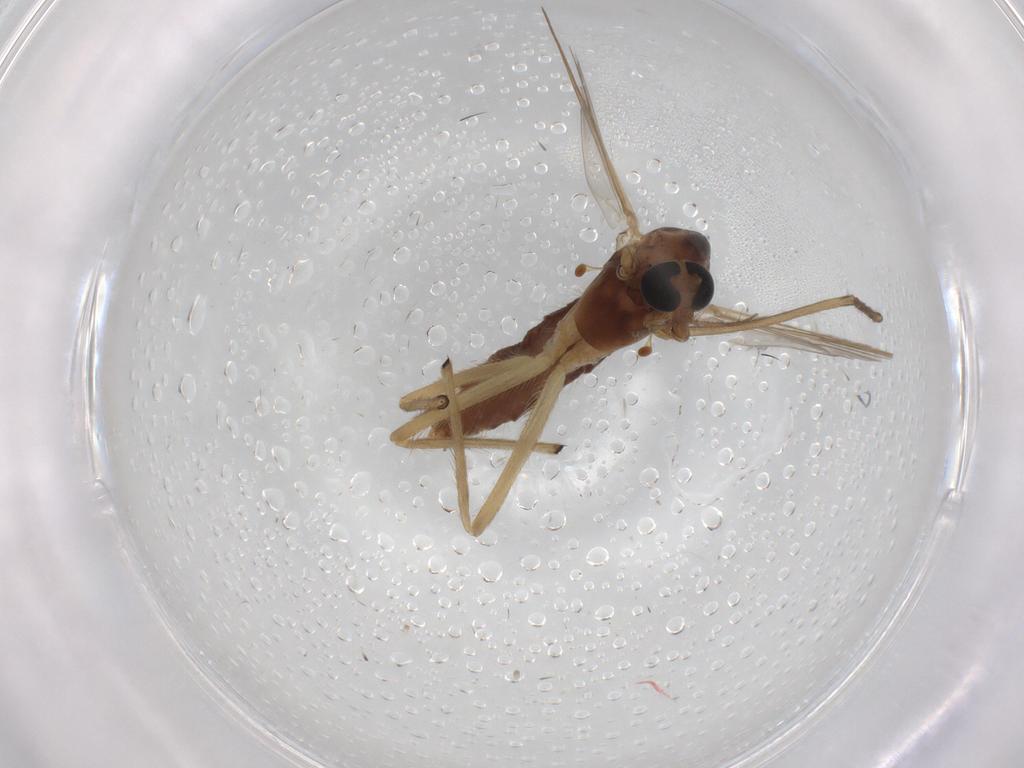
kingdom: Animalia
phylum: Arthropoda
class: Insecta
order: Diptera
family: Chironomidae
